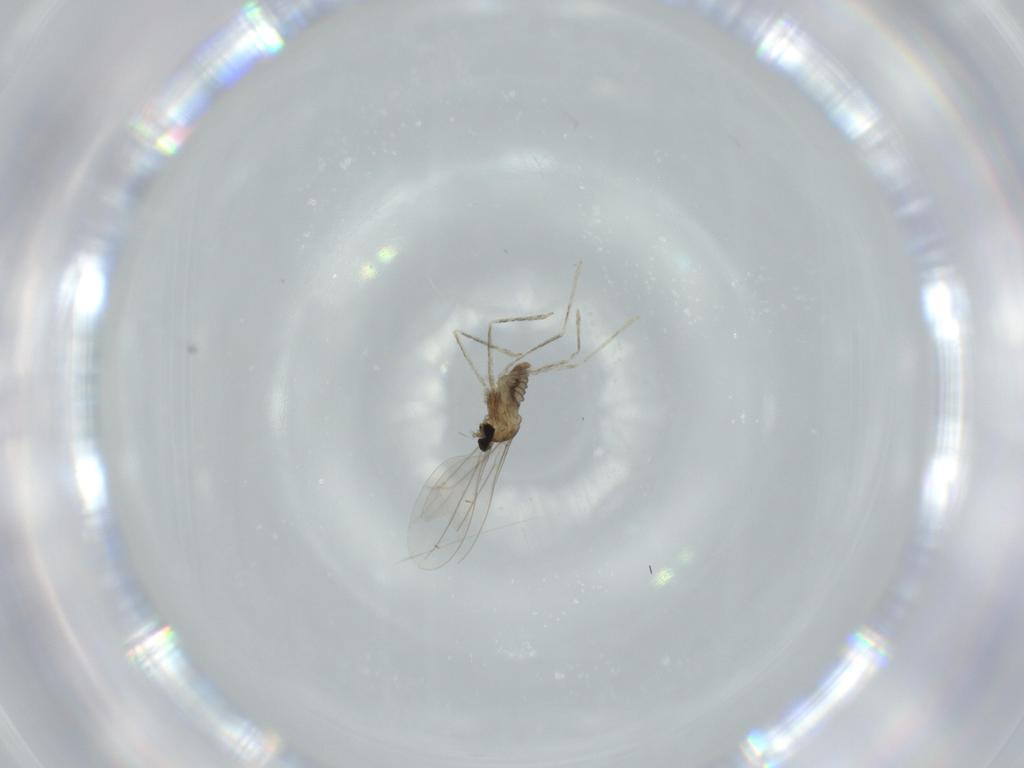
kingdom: Animalia
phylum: Arthropoda
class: Insecta
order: Diptera
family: Cecidomyiidae
